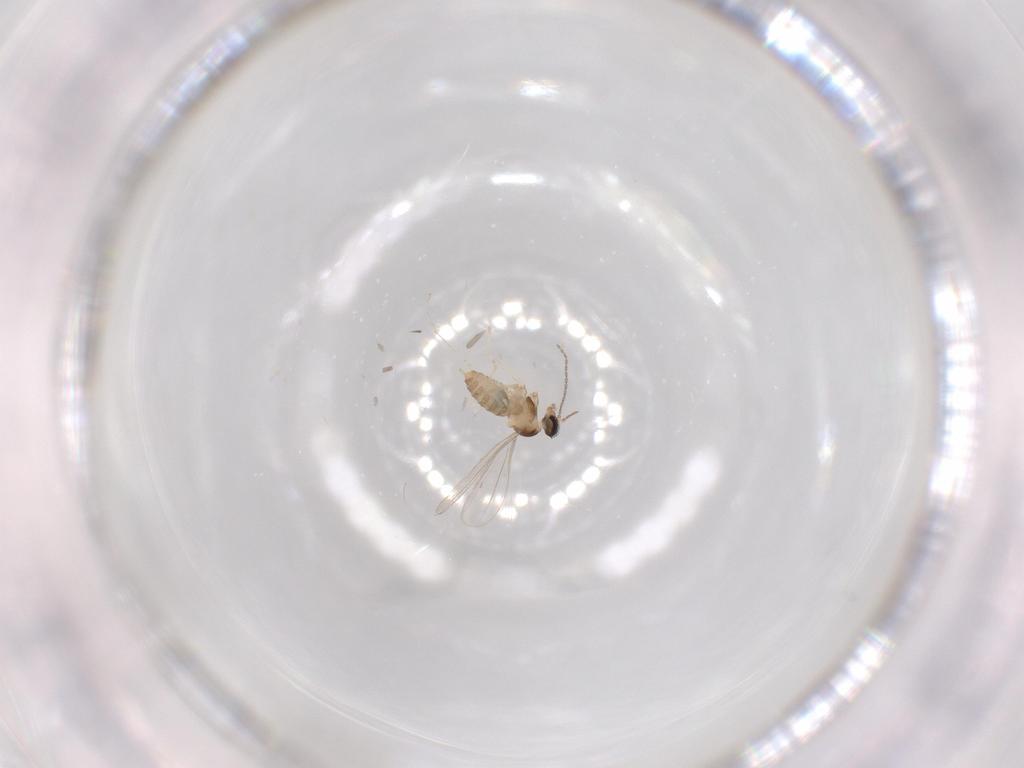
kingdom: Animalia
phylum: Arthropoda
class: Insecta
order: Diptera
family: Cecidomyiidae
